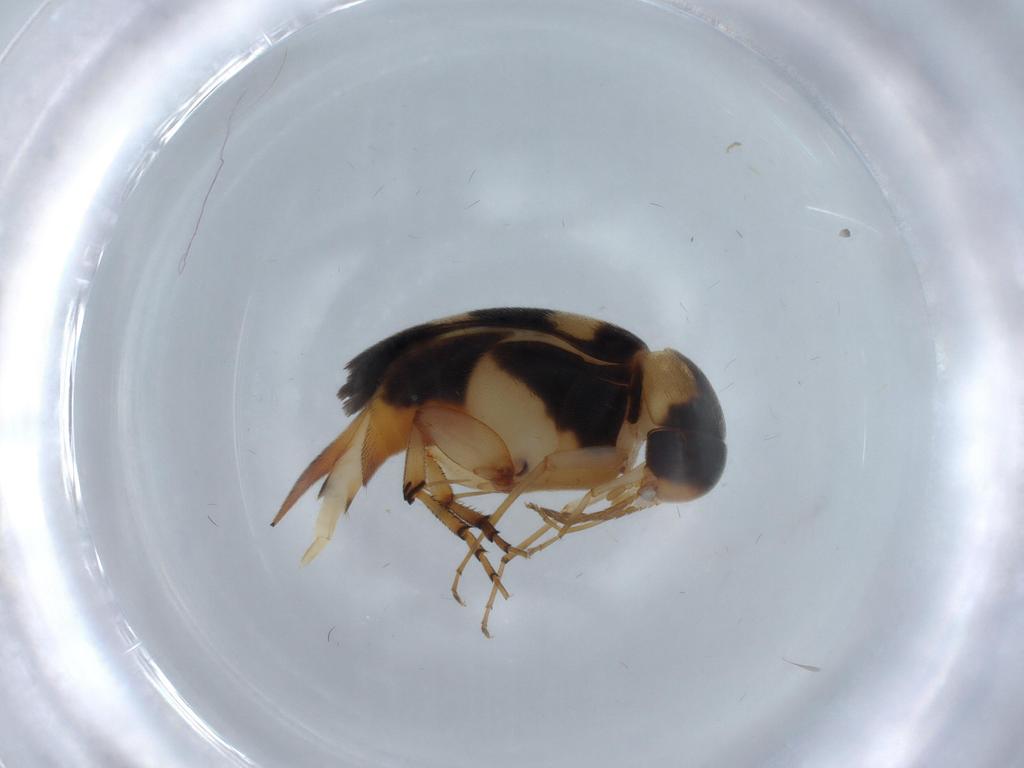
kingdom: Animalia
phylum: Arthropoda
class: Insecta
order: Coleoptera
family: Mordellidae
